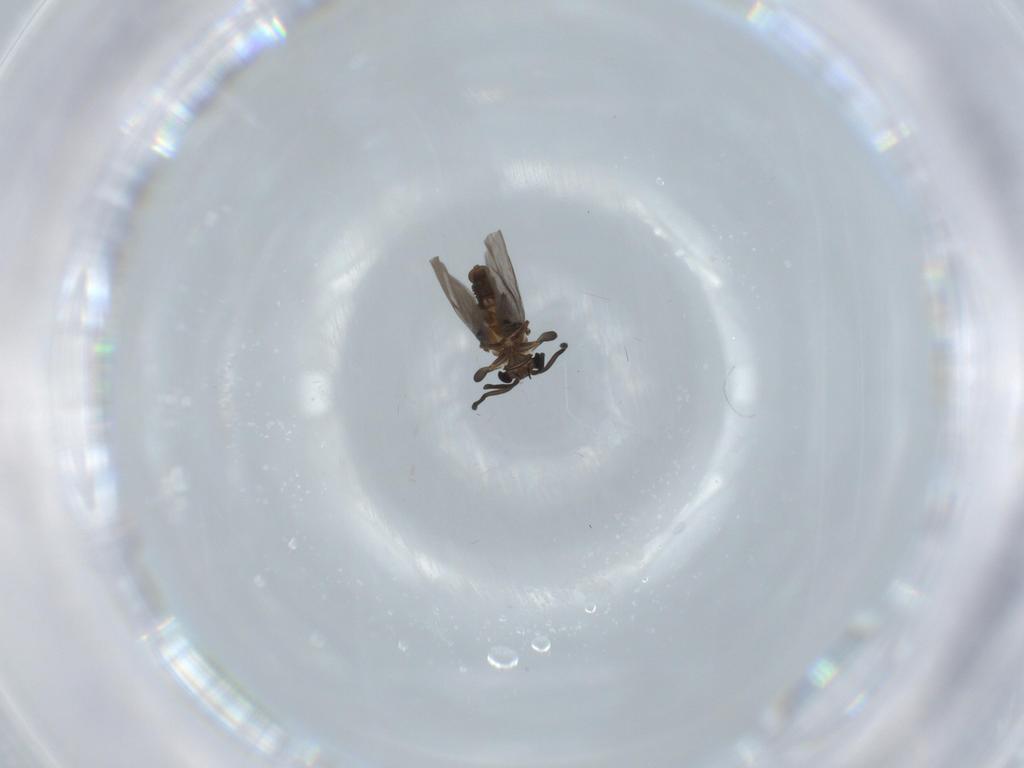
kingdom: Animalia
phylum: Arthropoda
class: Insecta
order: Strepsiptera
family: Myrmecolacidae
